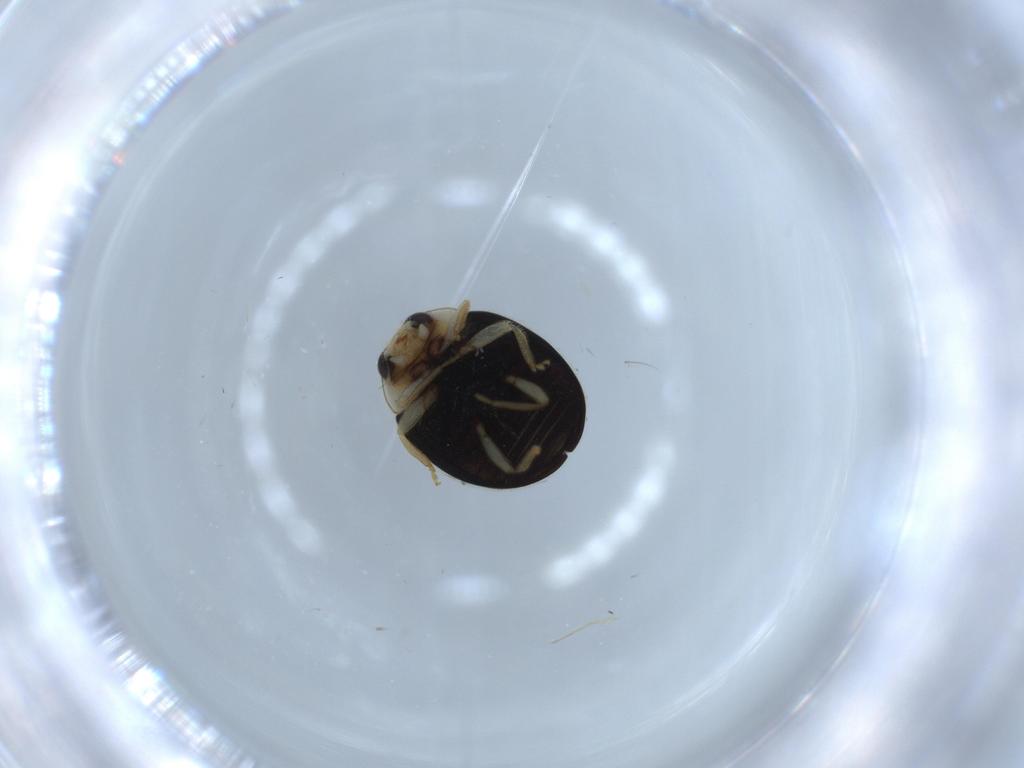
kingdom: Animalia
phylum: Arthropoda
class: Insecta
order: Coleoptera
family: Coccinellidae
